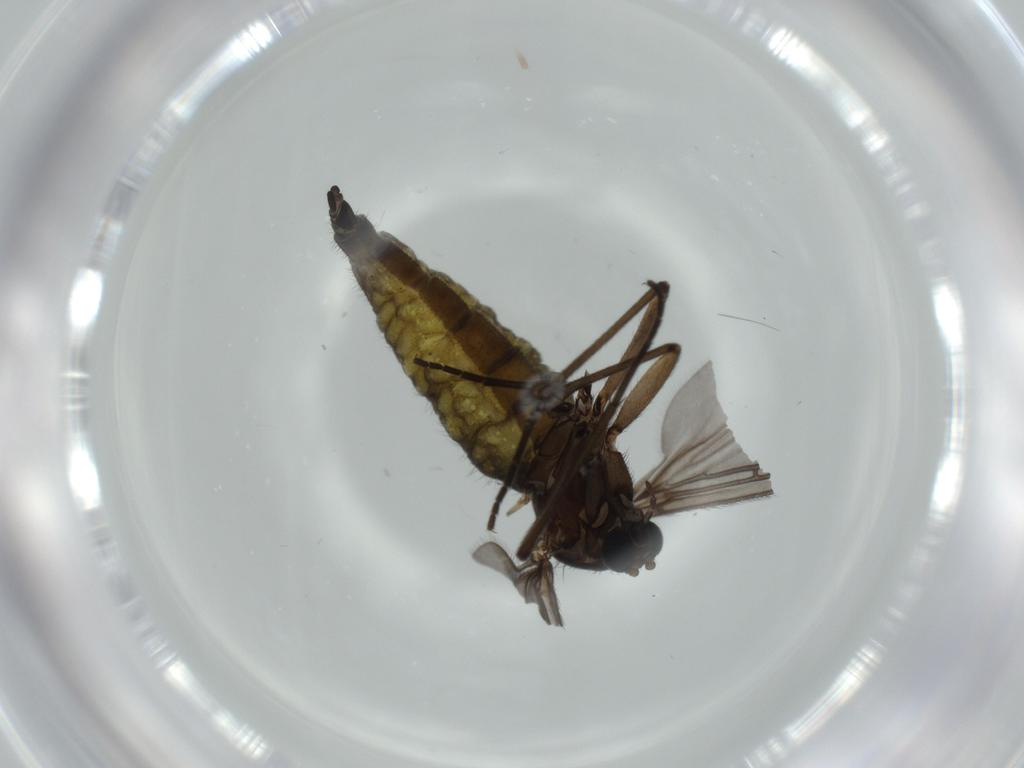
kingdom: Animalia
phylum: Arthropoda
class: Insecta
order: Diptera
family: Sciaridae
